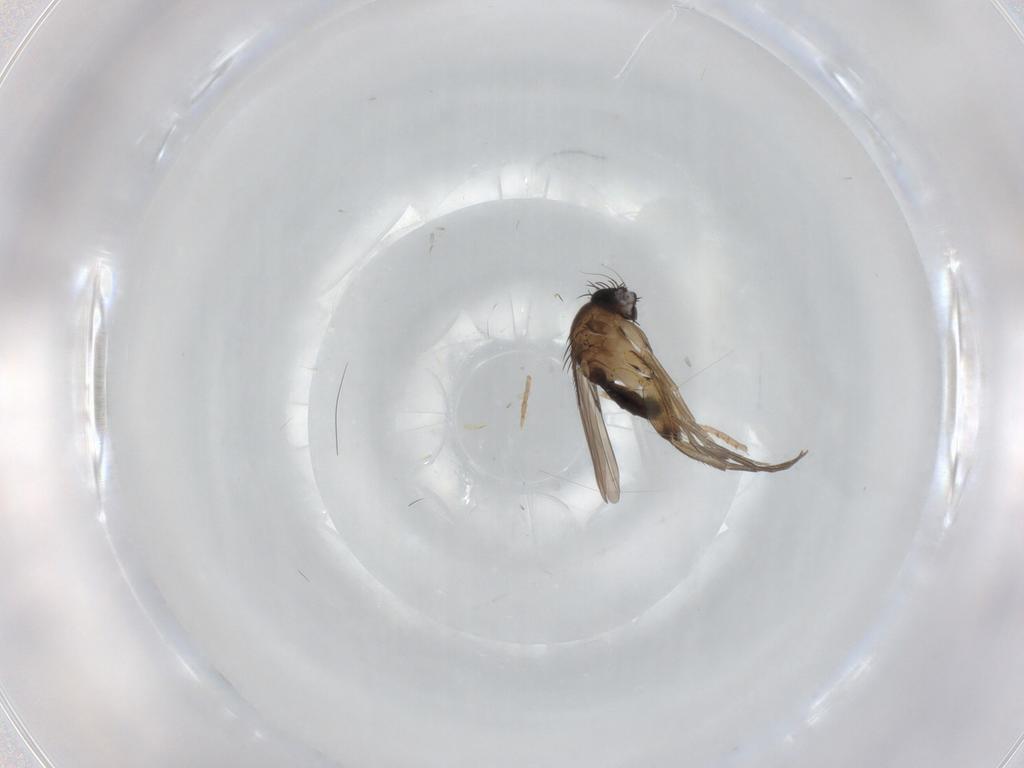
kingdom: Animalia
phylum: Arthropoda
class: Insecta
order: Diptera
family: Phoridae
